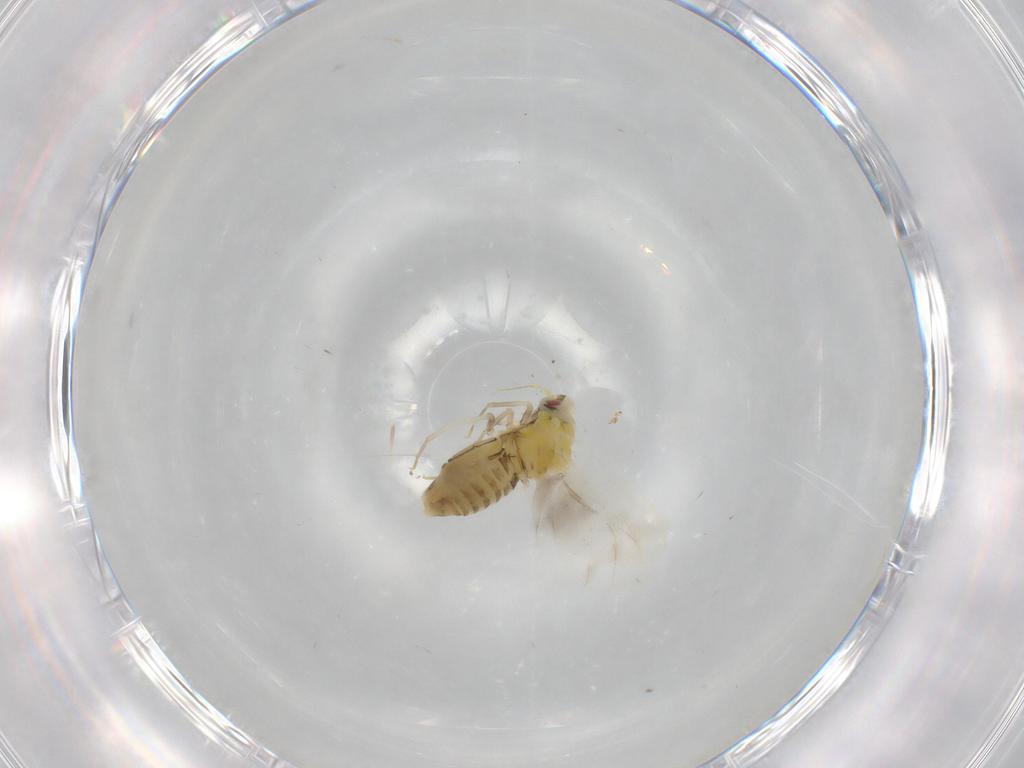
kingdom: Animalia
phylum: Arthropoda
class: Insecta
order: Hemiptera
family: Aleyrodidae
